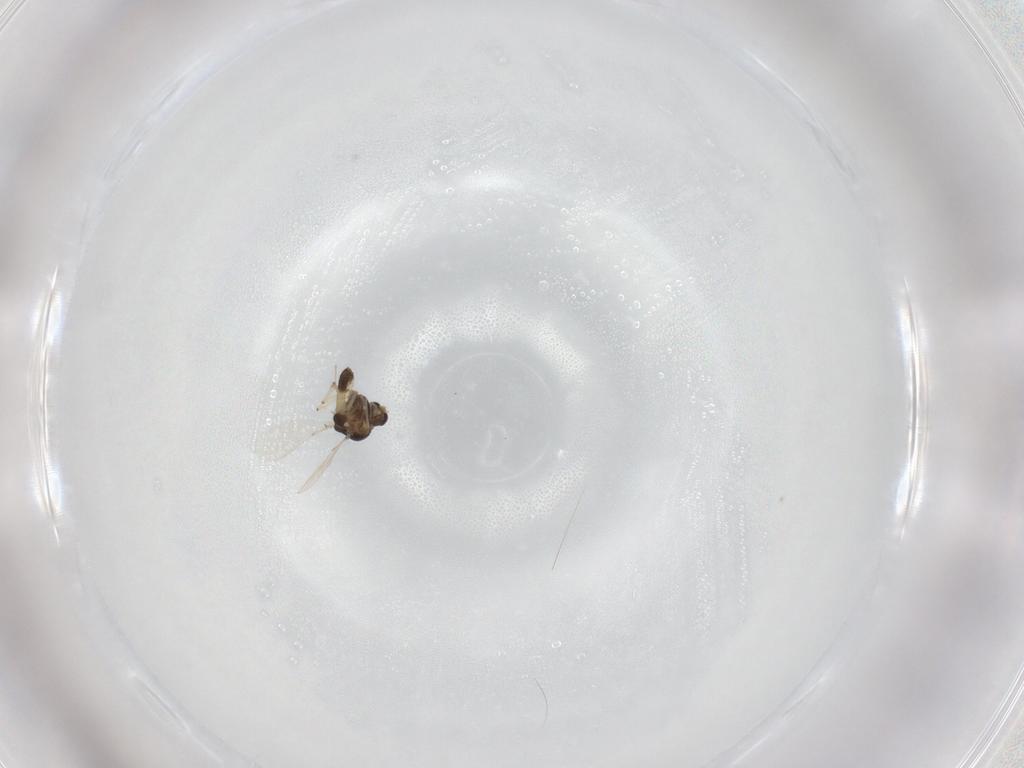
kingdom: Animalia
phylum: Arthropoda
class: Insecta
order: Diptera
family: Chironomidae
